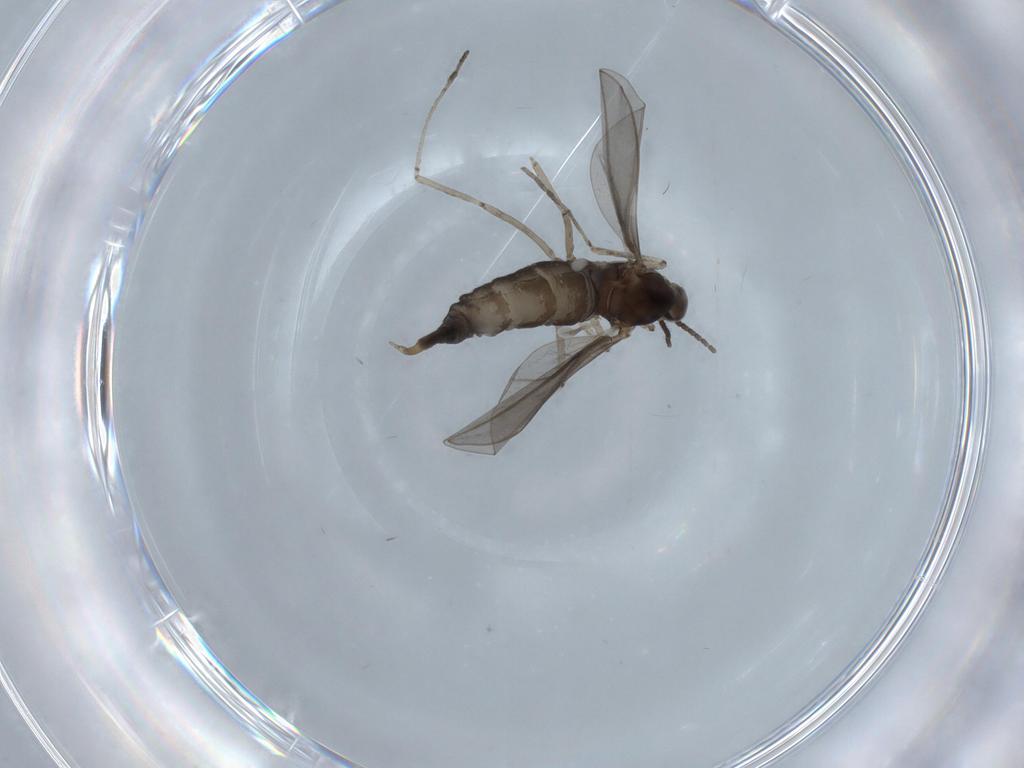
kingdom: Animalia
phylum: Arthropoda
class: Insecta
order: Diptera
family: Cecidomyiidae
